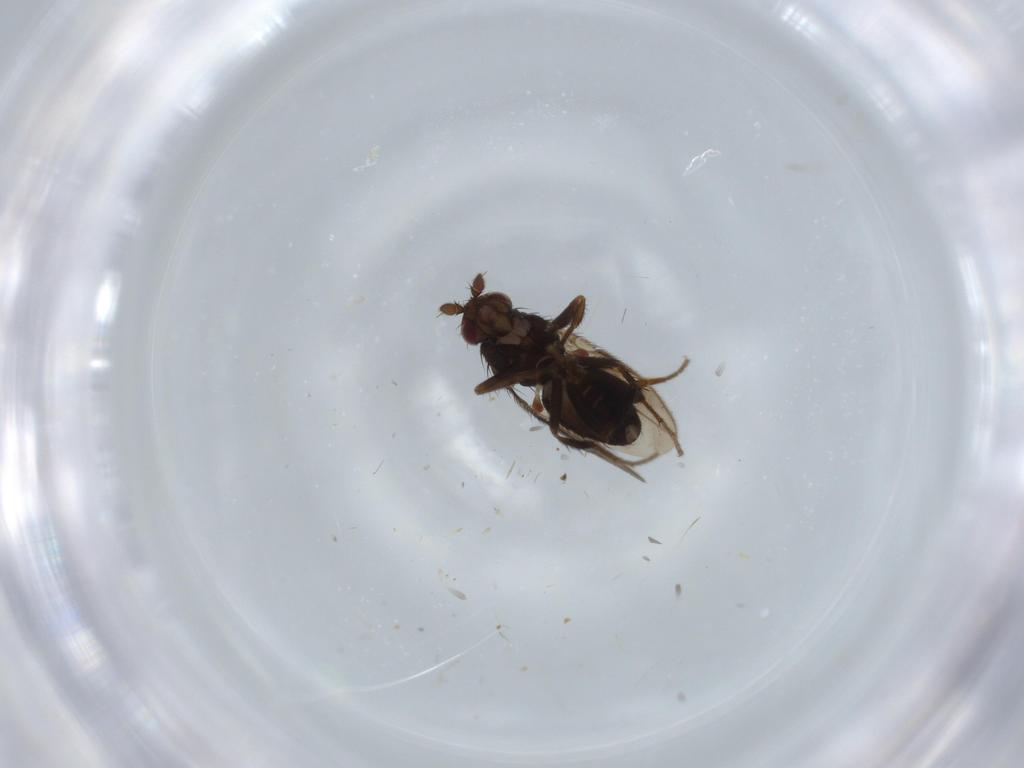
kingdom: Animalia
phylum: Arthropoda
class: Insecta
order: Diptera
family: Sphaeroceridae
